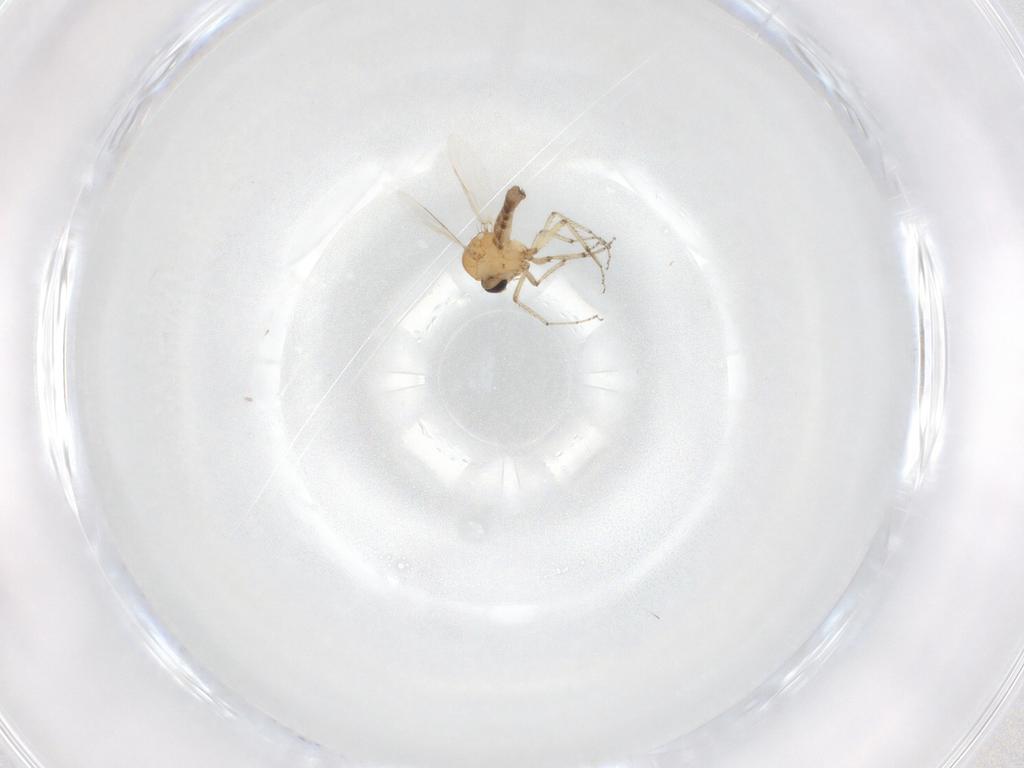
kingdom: Animalia
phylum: Arthropoda
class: Insecta
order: Diptera
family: Ceratopogonidae
